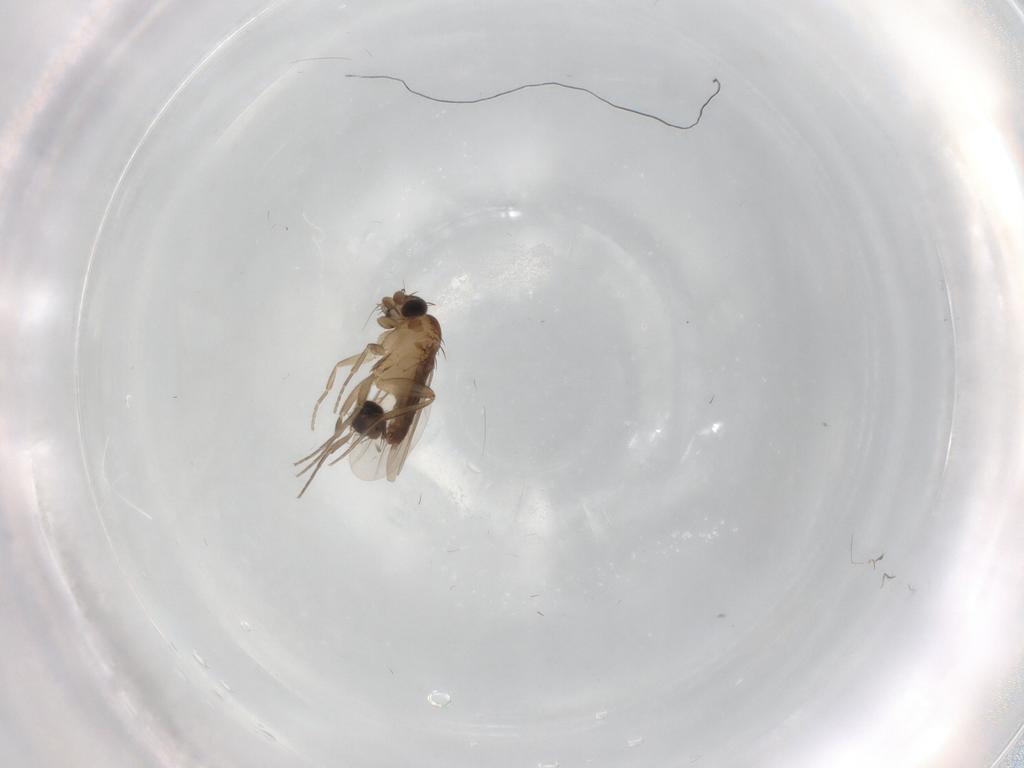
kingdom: Animalia
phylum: Arthropoda
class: Insecta
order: Diptera
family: Phoridae
